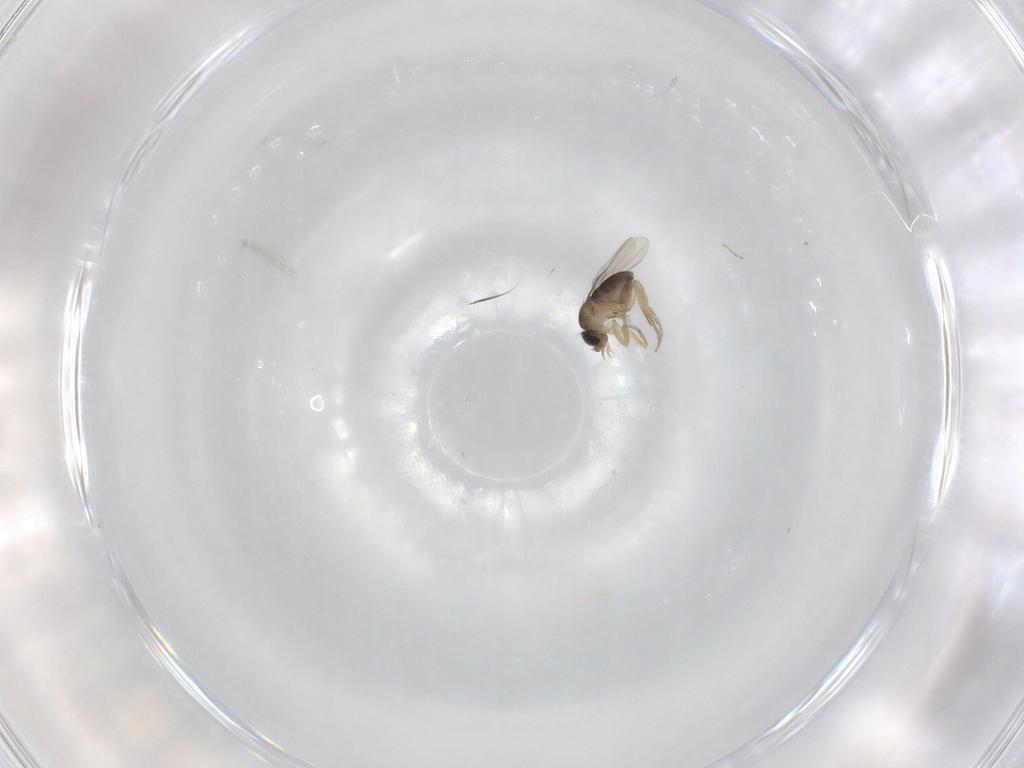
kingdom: Animalia
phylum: Arthropoda
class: Insecta
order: Diptera
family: Phoridae
